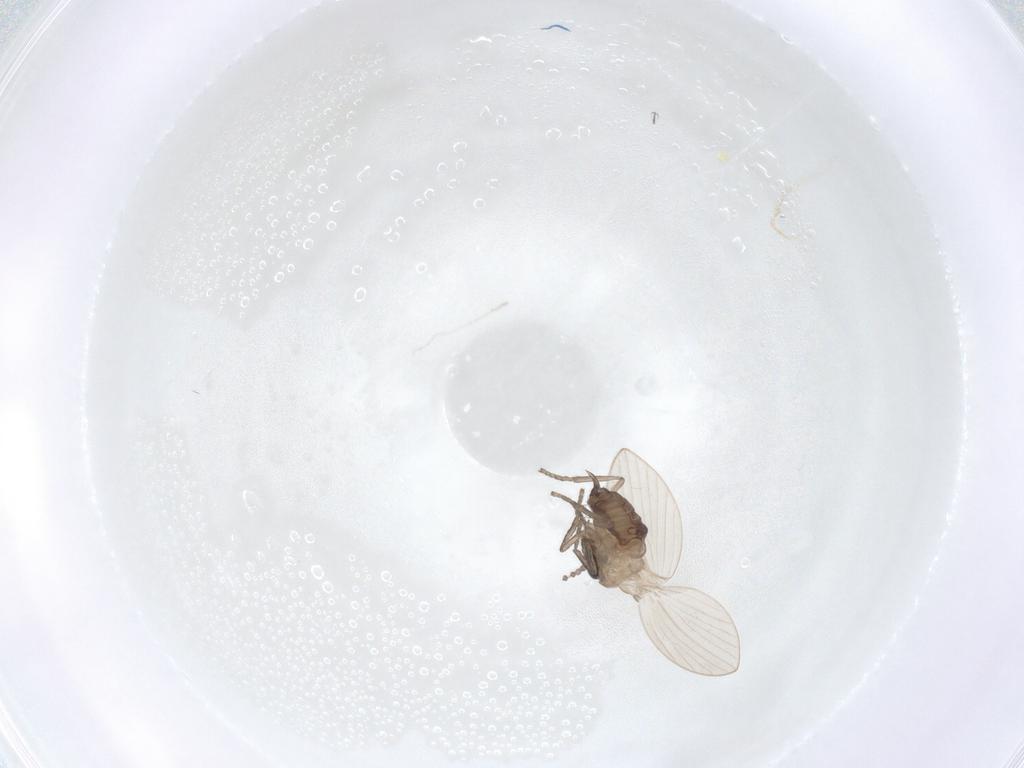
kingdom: Animalia
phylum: Arthropoda
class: Insecta
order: Diptera
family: Psychodidae
